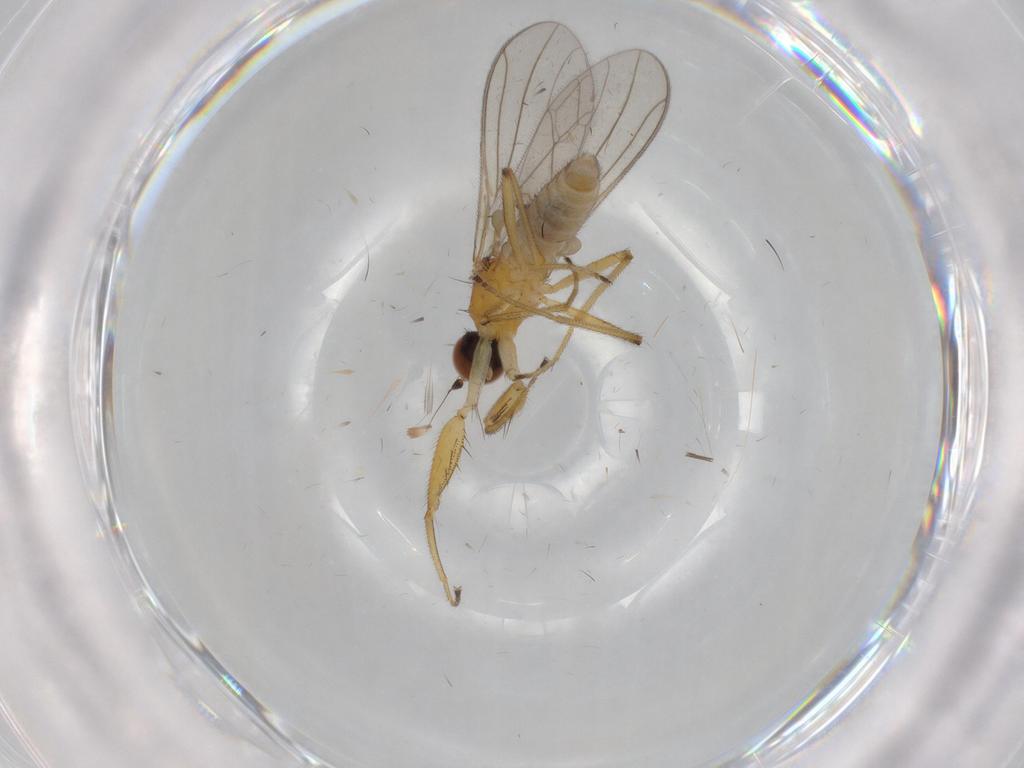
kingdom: Animalia
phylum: Arthropoda
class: Insecta
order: Diptera
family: Empididae
